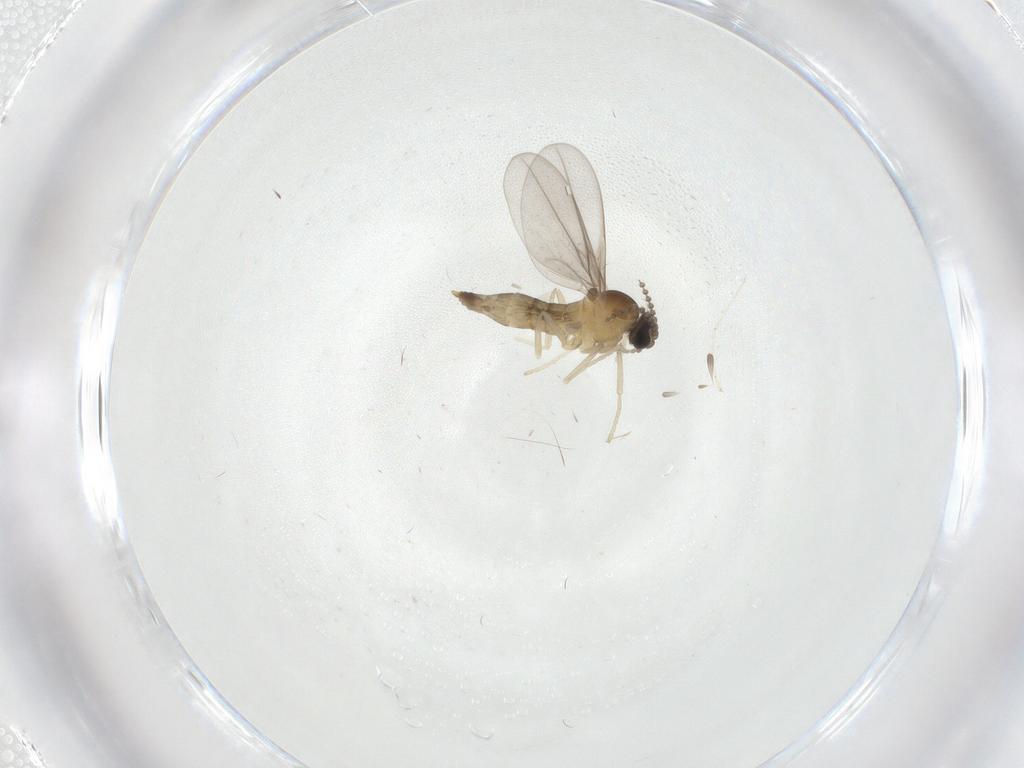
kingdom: Animalia
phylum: Arthropoda
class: Insecta
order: Diptera
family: Cecidomyiidae
